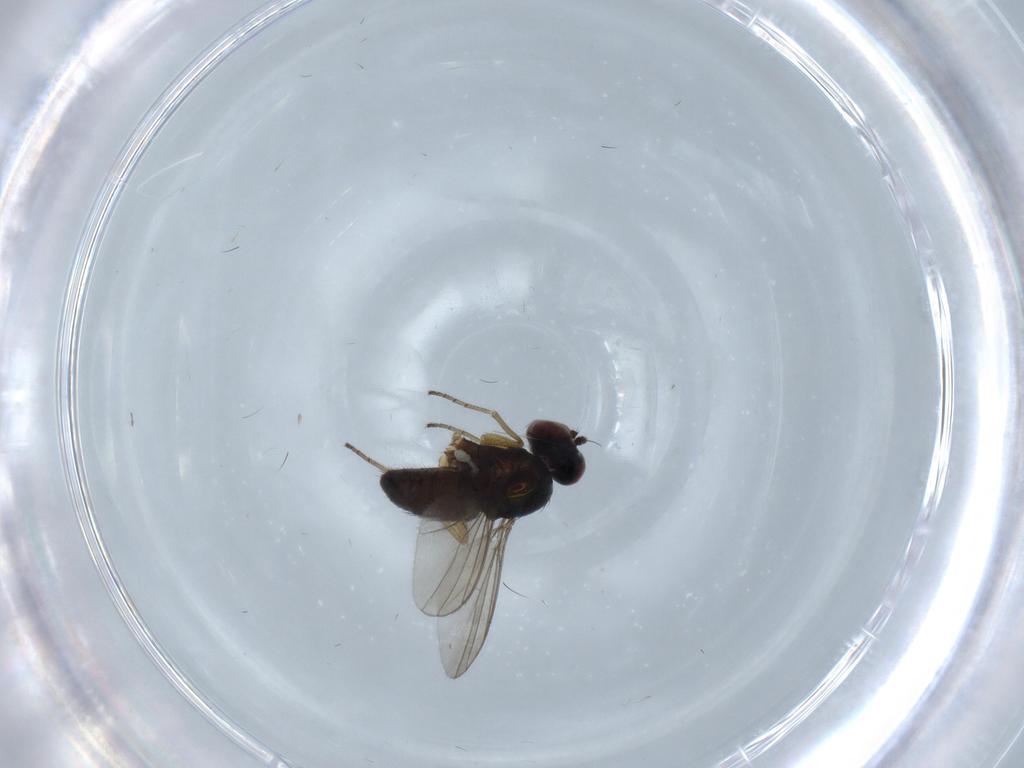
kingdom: Animalia
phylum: Arthropoda
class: Insecta
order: Diptera
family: Dolichopodidae
